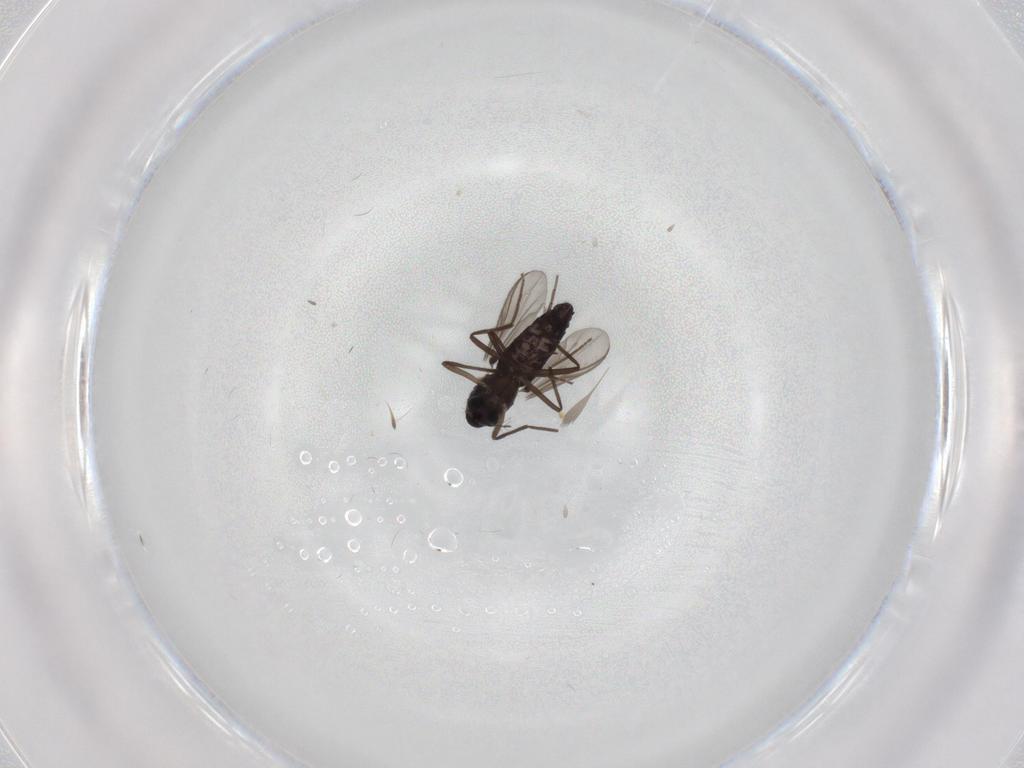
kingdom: Animalia
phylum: Arthropoda
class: Insecta
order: Diptera
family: Chironomidae
